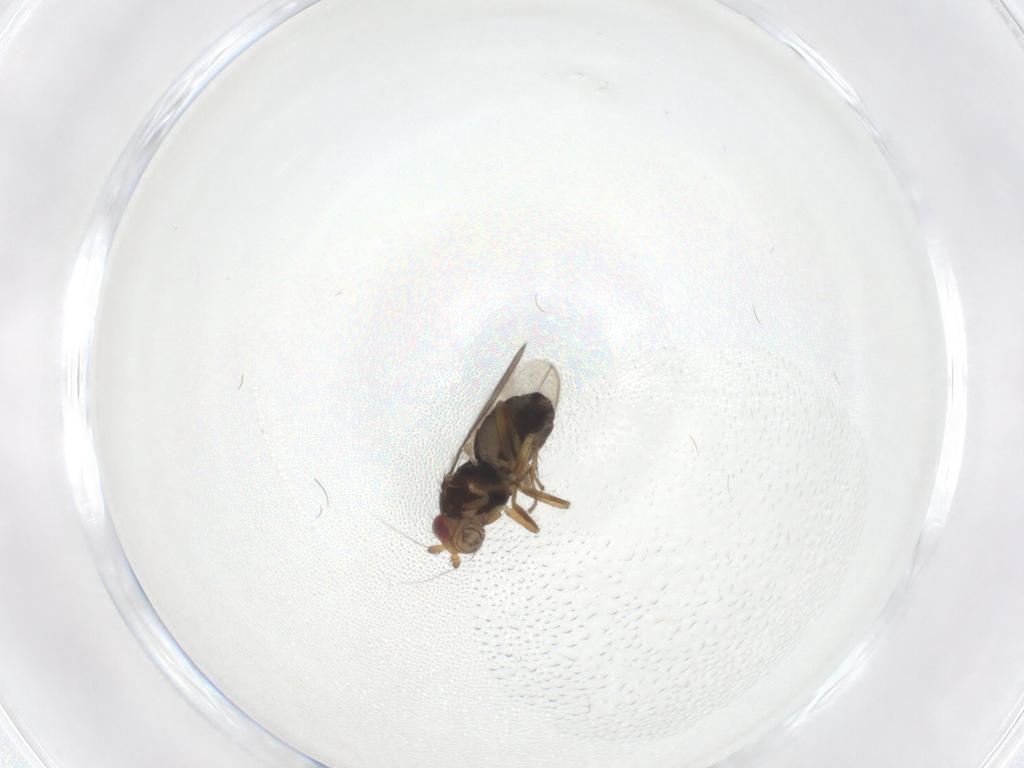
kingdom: Animalia
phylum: Arthropoda
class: Insecta
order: Diptera
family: Sphaeroceridae
